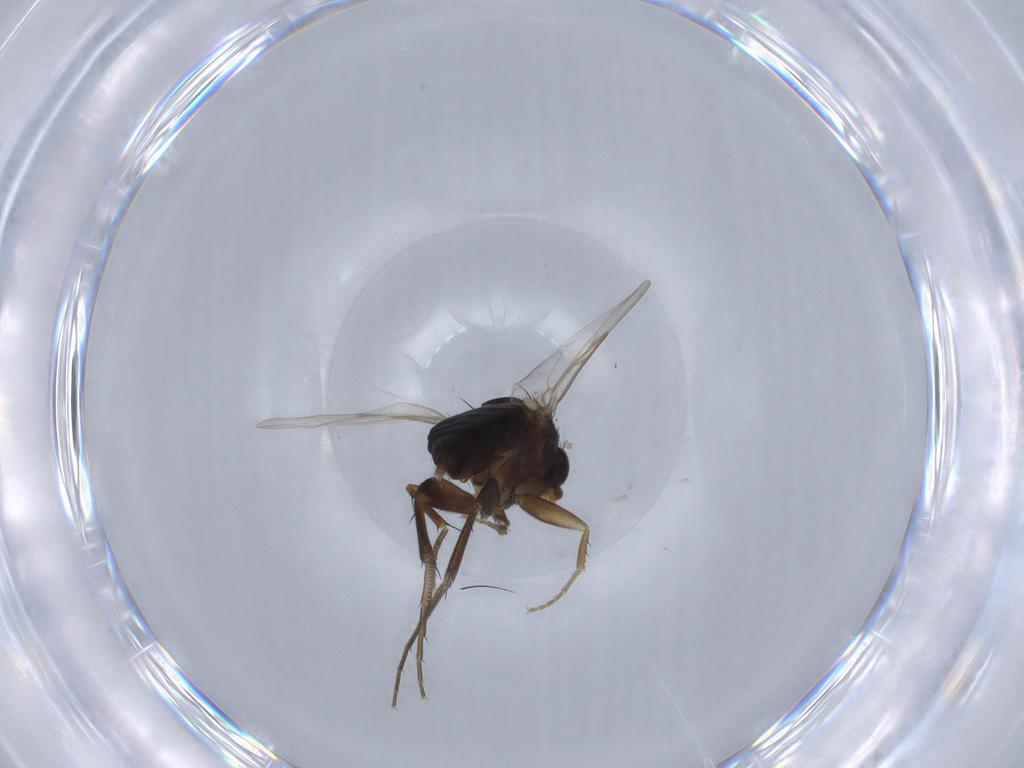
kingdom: Animalia
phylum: Arthropoda
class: Insecta
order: Diptera
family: Phoridae
